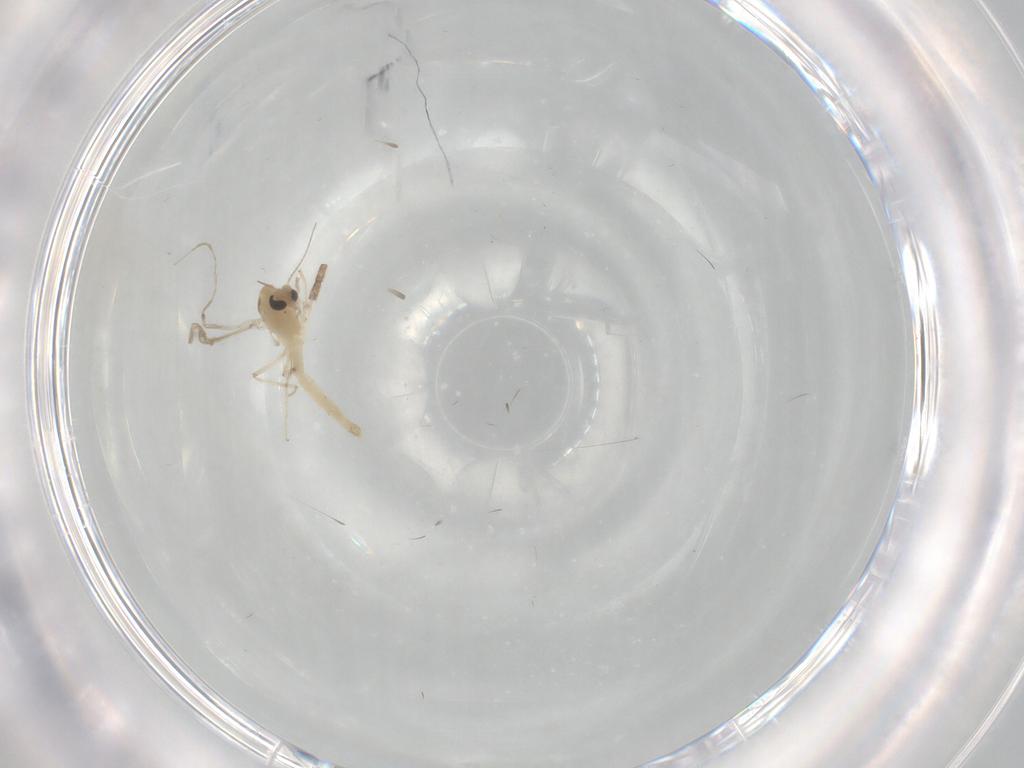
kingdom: Animalia
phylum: Arthropoda
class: Insecta
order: Diptera
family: Chironomidae
